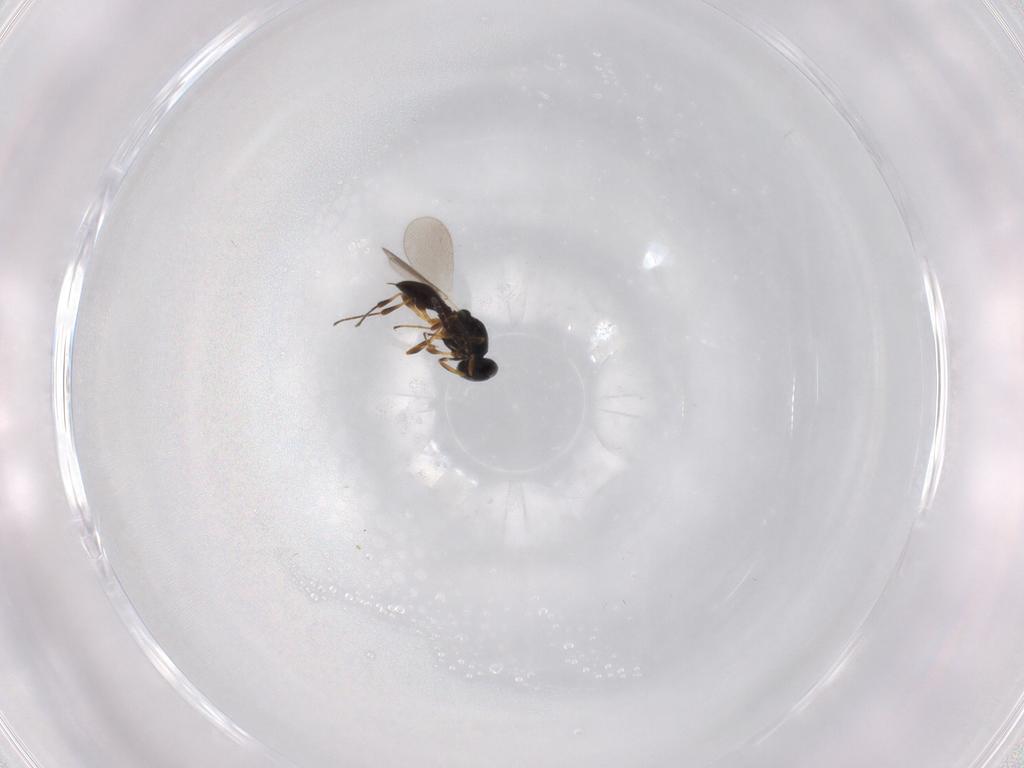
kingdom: Animalia
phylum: Arthropoda
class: Insecta
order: Hymenoptera
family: Platygastridae
